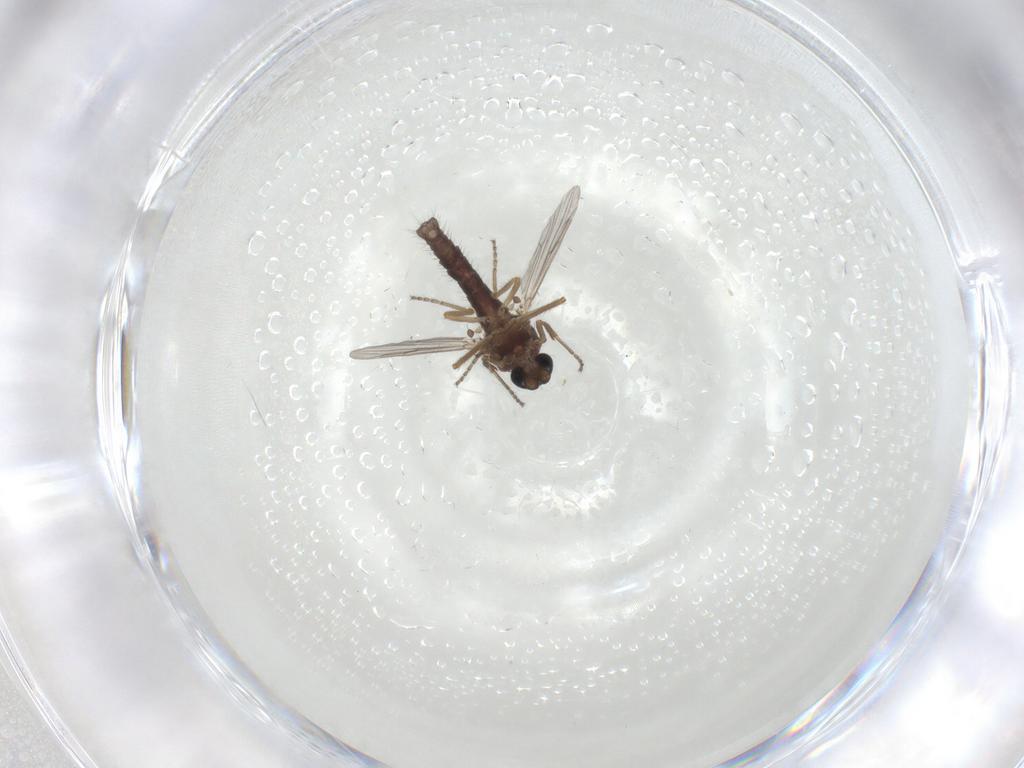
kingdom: Animalia
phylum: Arthropoda
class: Insecta
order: Diptera
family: Ceratopogonidae
